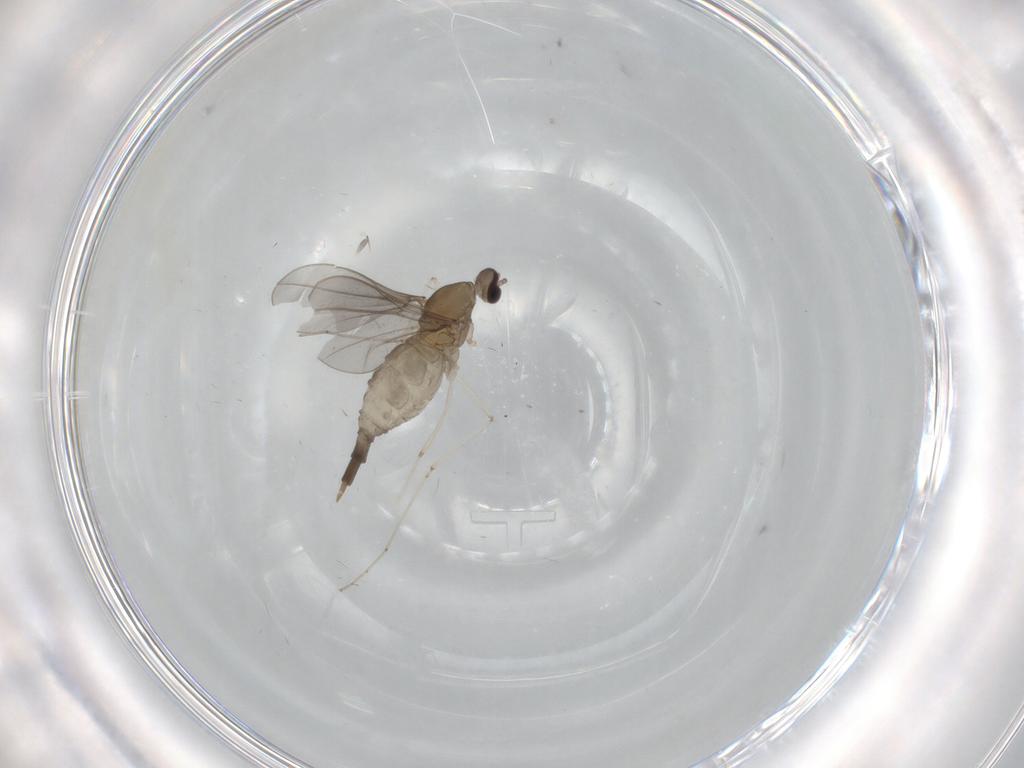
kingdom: Animalia
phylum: Arthropoda
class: Insecta
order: Diptera
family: Cecidomyiidae
